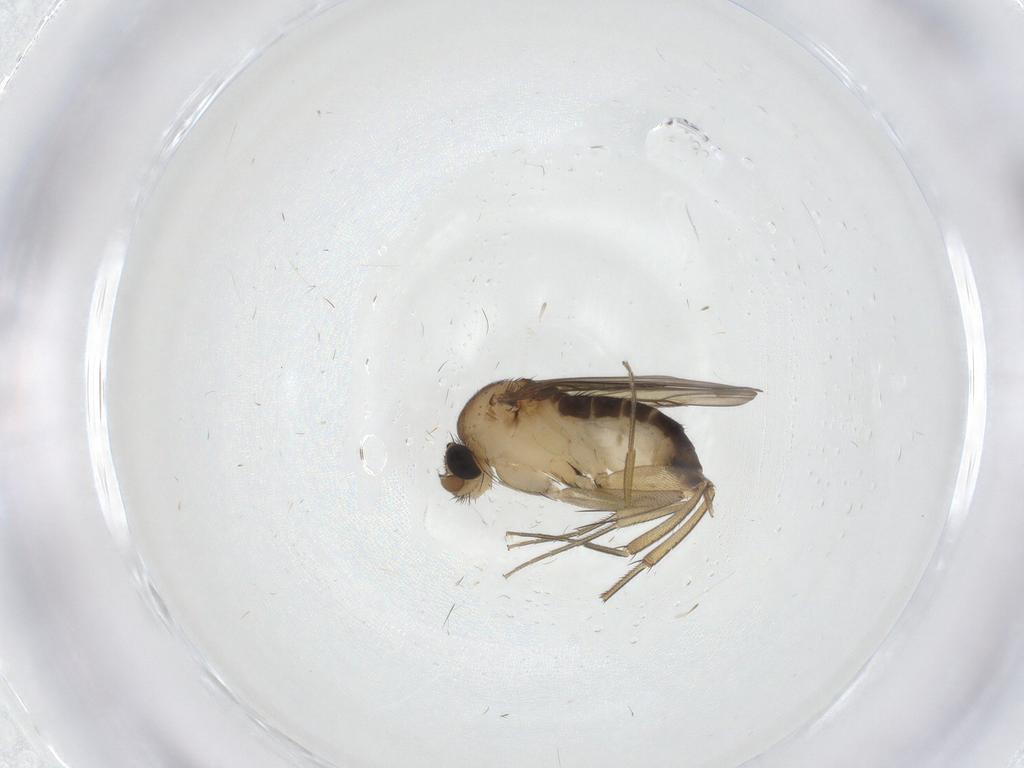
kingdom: Animalia
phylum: Arthropoda
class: Insecta
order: Diptera
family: Phoridae
